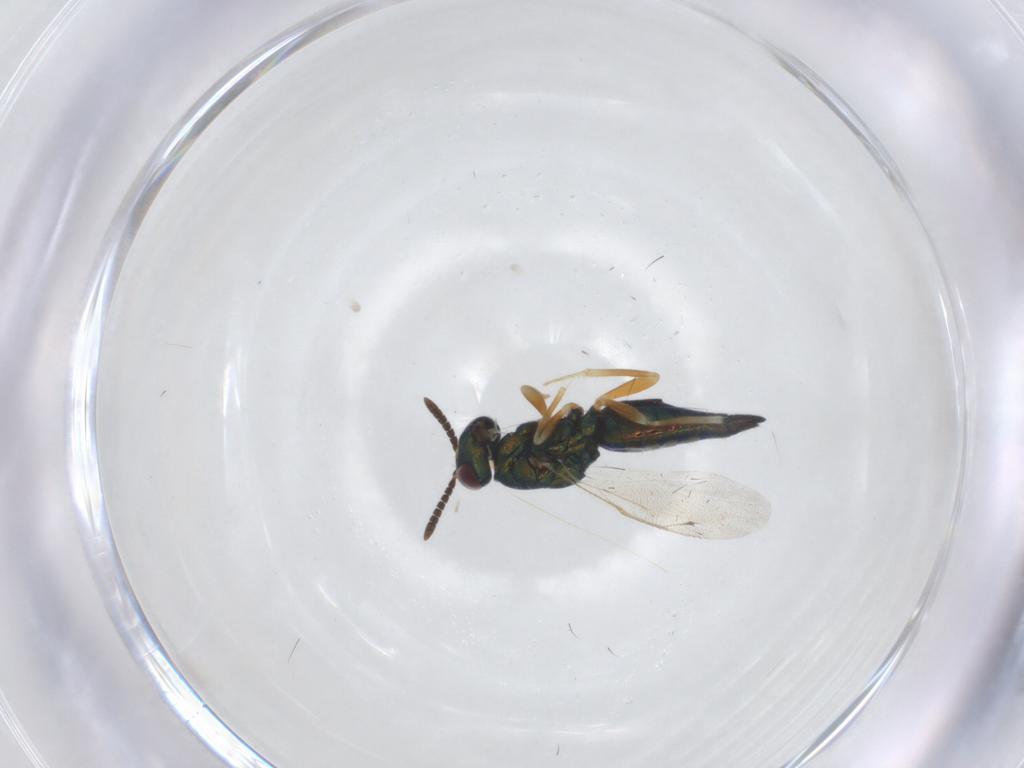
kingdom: Animalia
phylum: Arthropoda
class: Insecta
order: Hymenoptera
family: Pteromalidae
